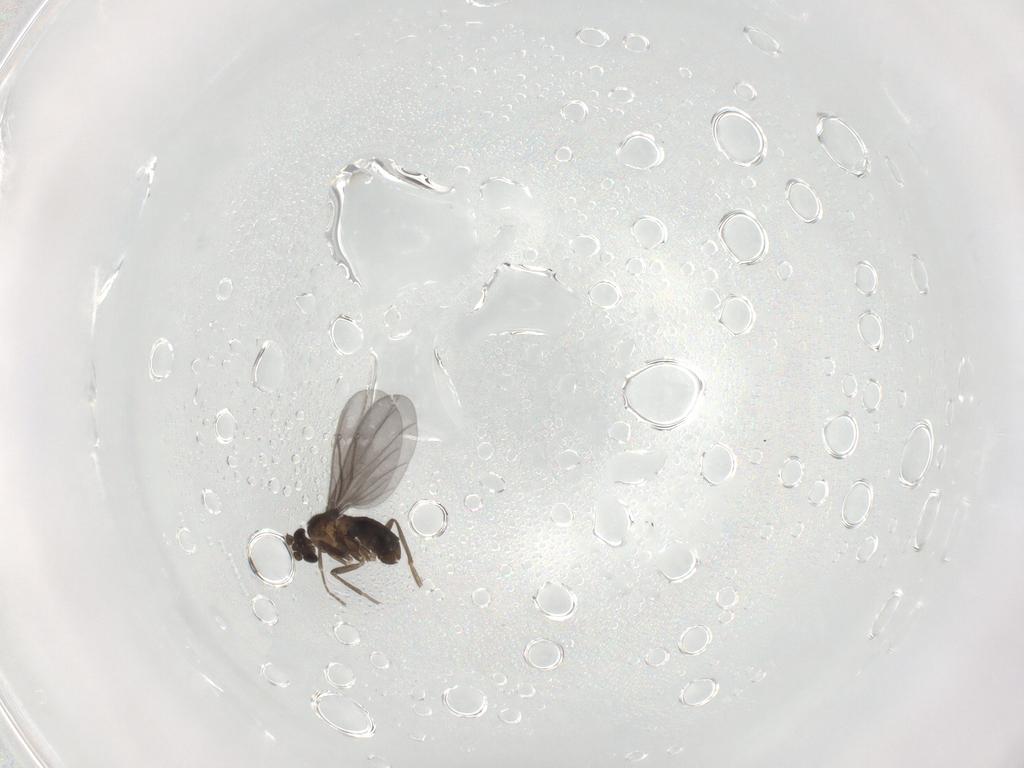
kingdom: Animalia
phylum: Arthropoda
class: Insecta
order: Diptera
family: Phoridae
